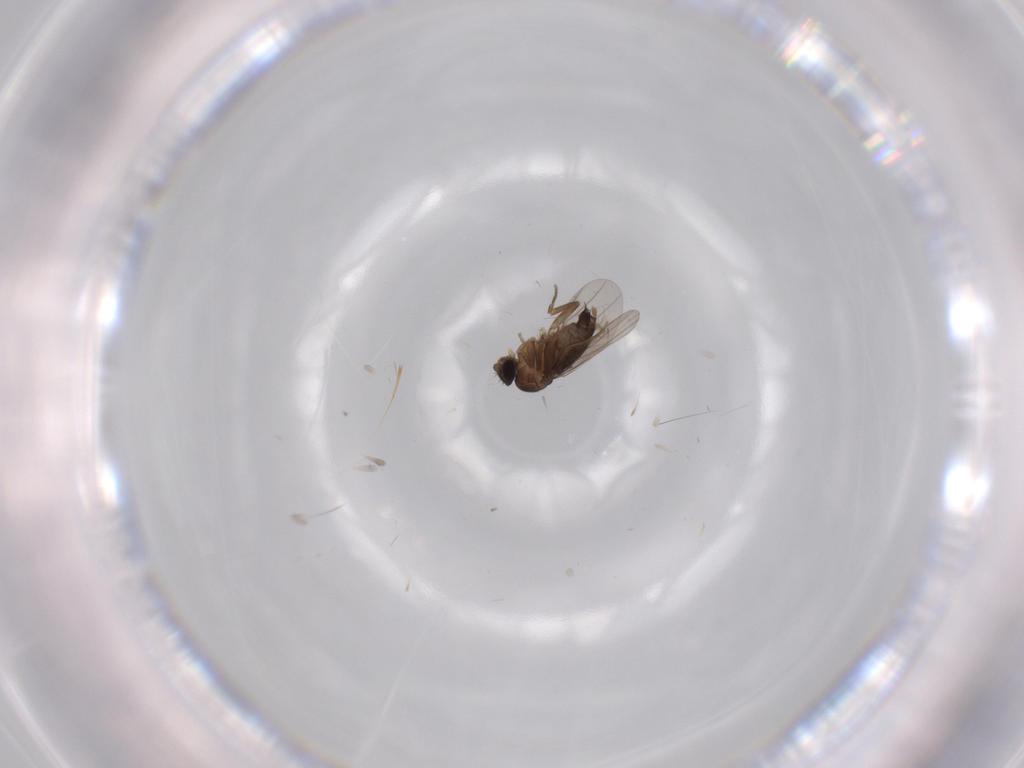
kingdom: Animalia
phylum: Arthropoda
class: Insecta
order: Diptera
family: Phoridae
